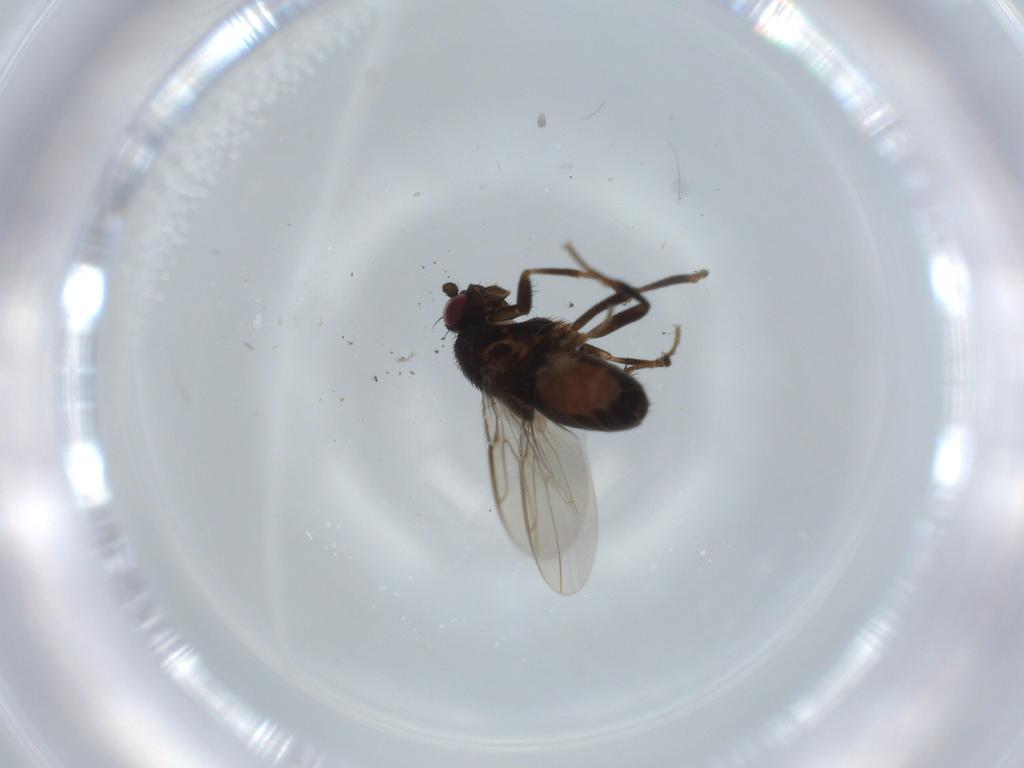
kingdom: Animalia
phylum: Arthropoda
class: Insecta
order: Diptera
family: Sphaeroceridae
